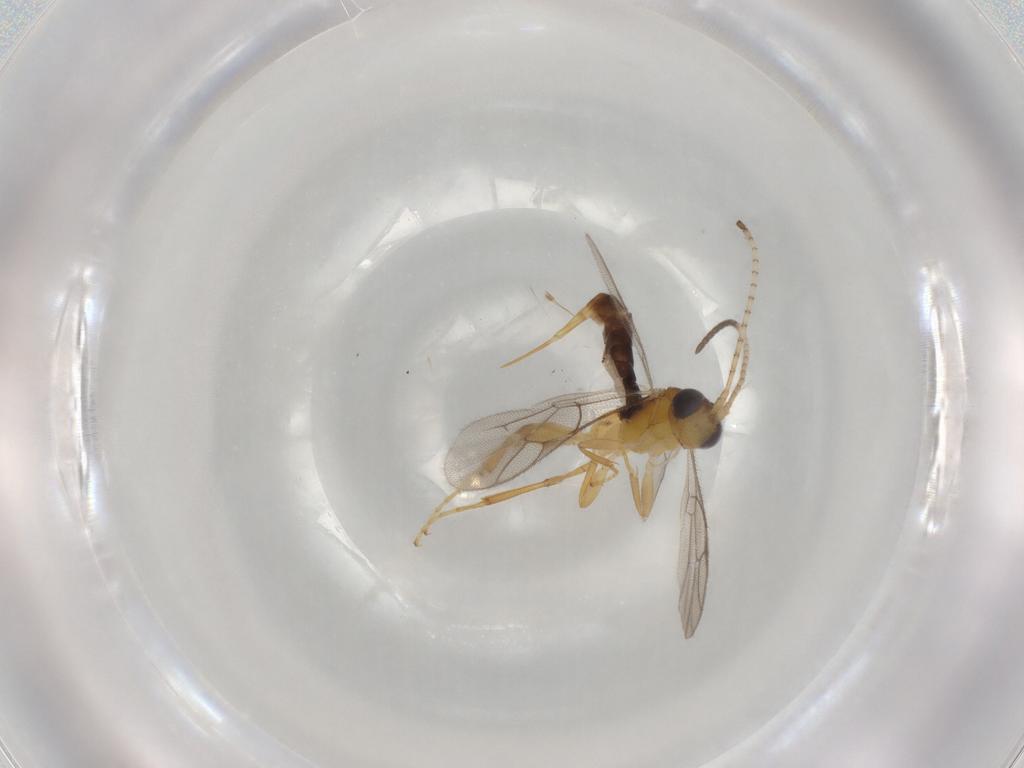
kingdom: Animalia
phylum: Arthropoda
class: Insecta
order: Hymenoptera
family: Ichneumonidae
